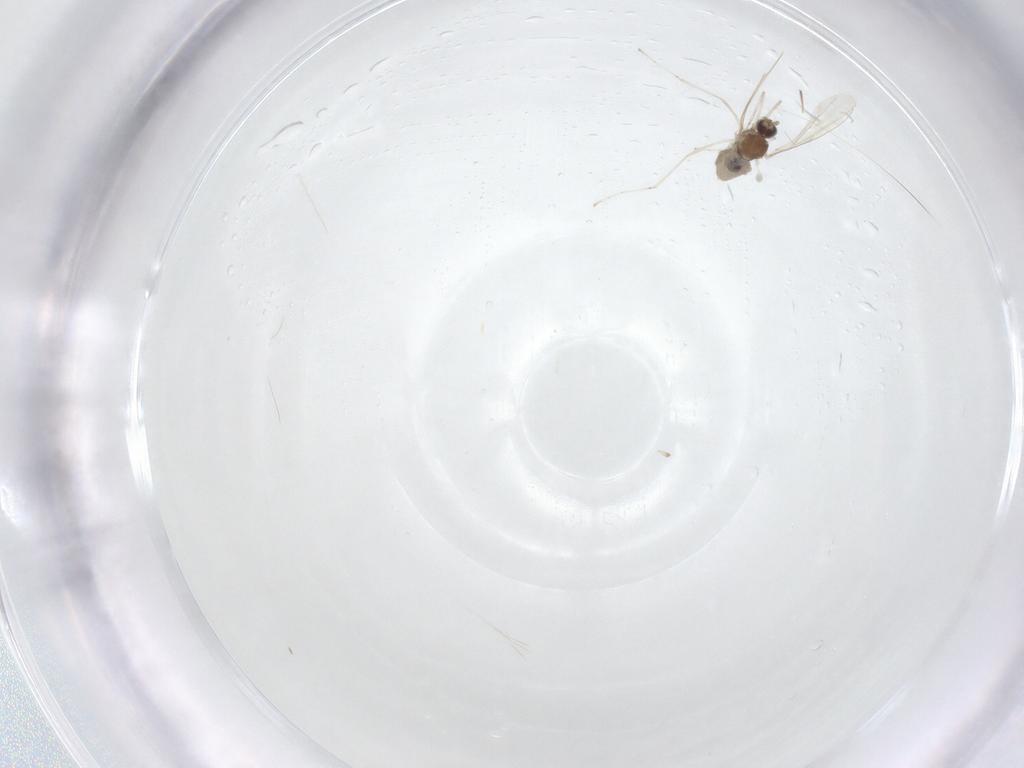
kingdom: Animalia
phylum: Arthropoda
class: Insecta
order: Diptera
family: Cecidomyiidae
